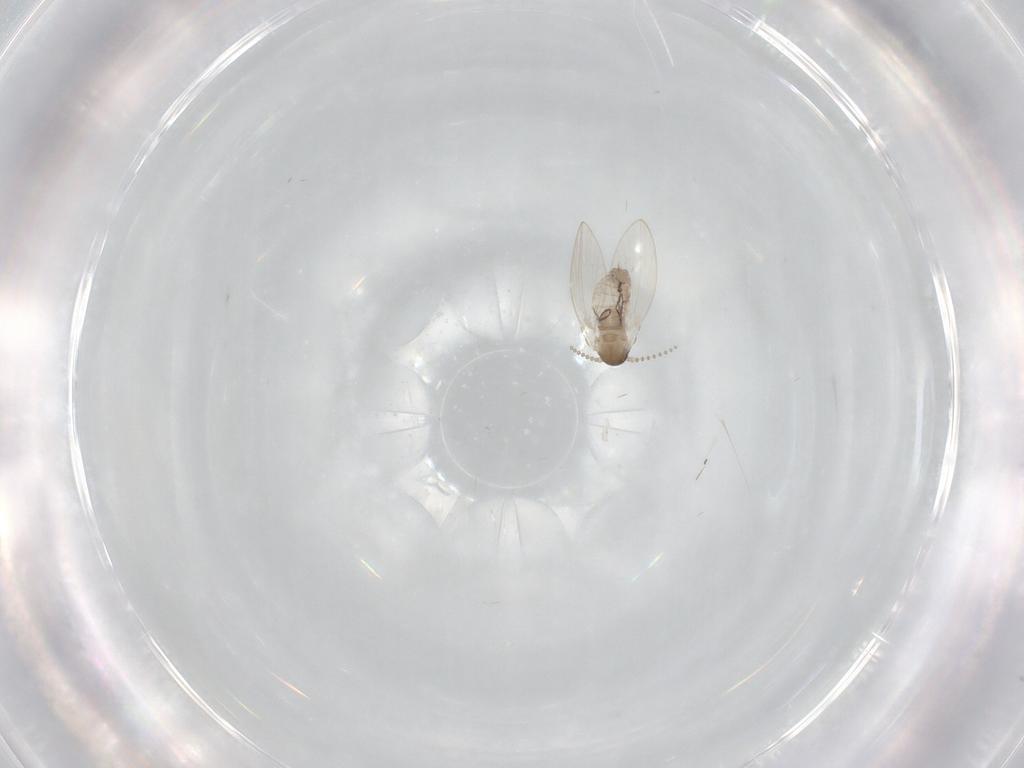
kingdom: Animalia
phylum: Arthropoda
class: Insecta
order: Diptera
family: Psychodidae
